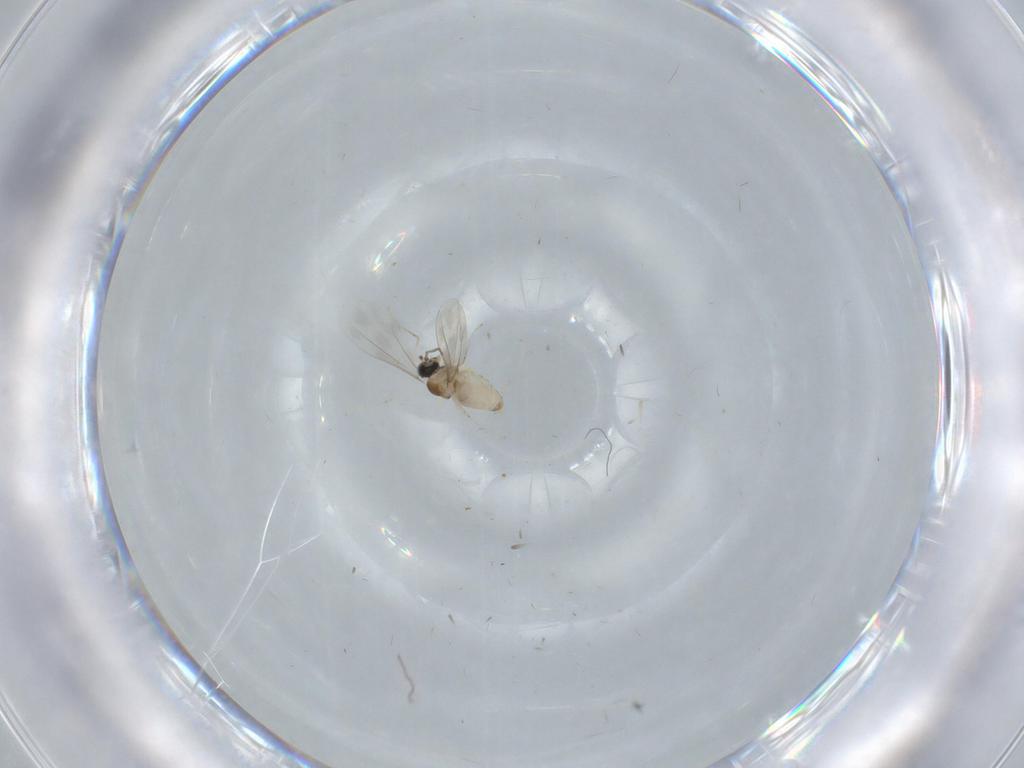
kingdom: Animalia
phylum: Arthropoda
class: Insecta
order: Diptera
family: Cecidomyiidae
